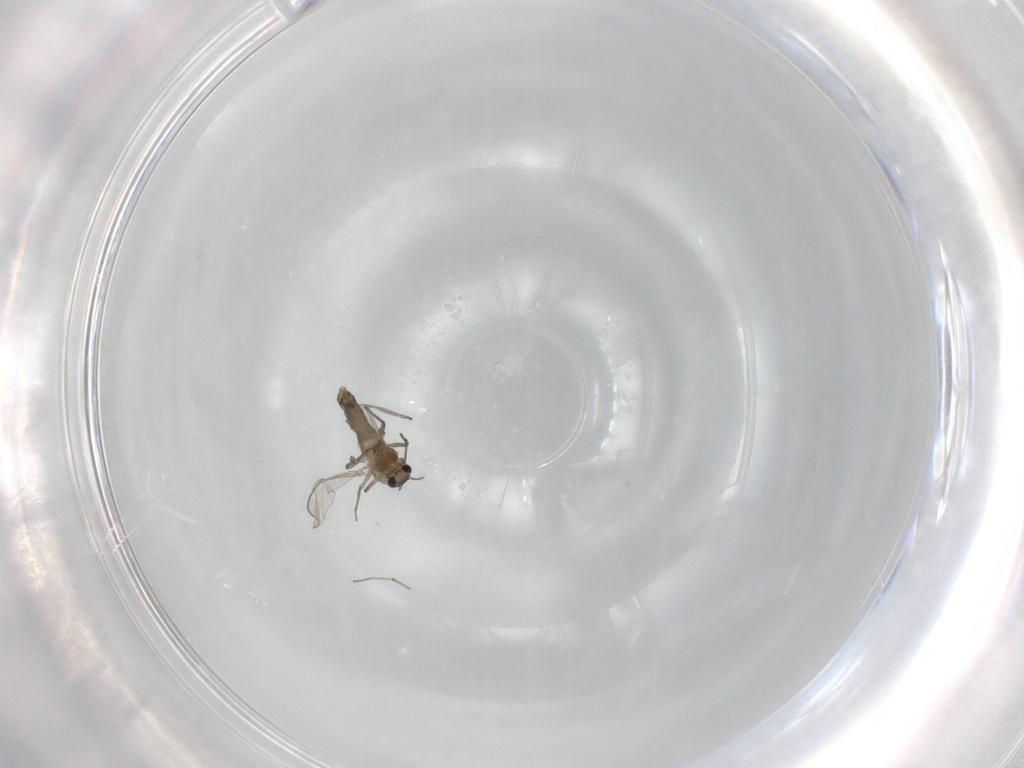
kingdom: Animalia
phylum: Arthropoda
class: Insecta
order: Diptera
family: Chironomidae
